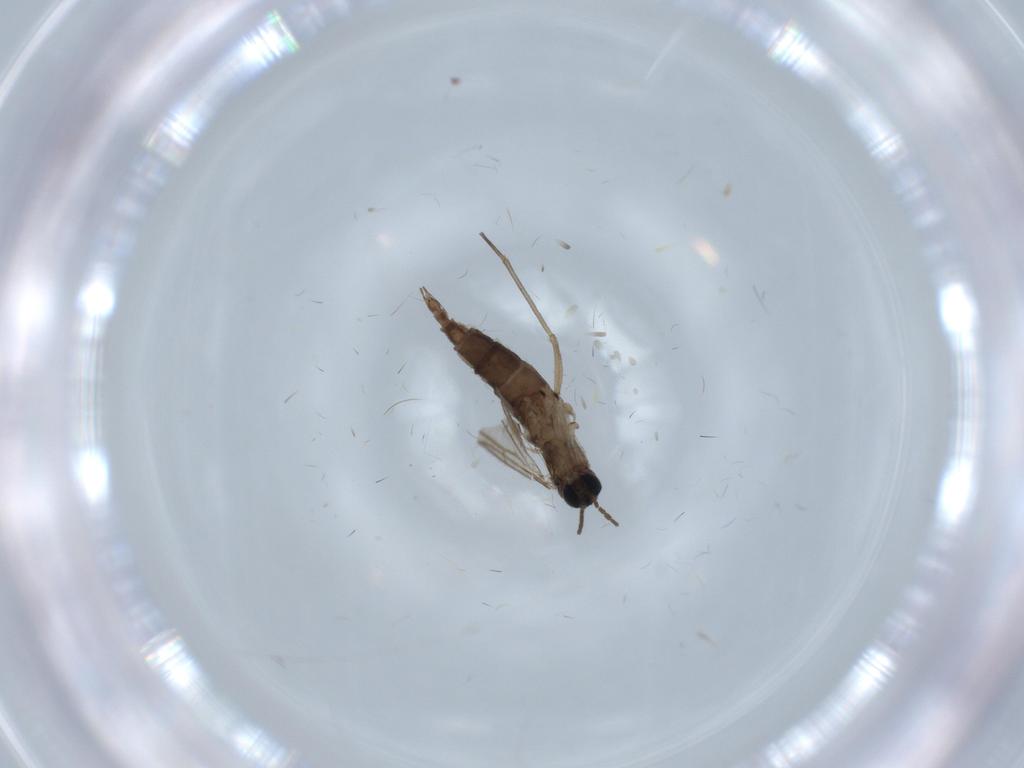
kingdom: Animalia
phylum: Arthropoda
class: Insecta
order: Diptera
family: Sciaridae
